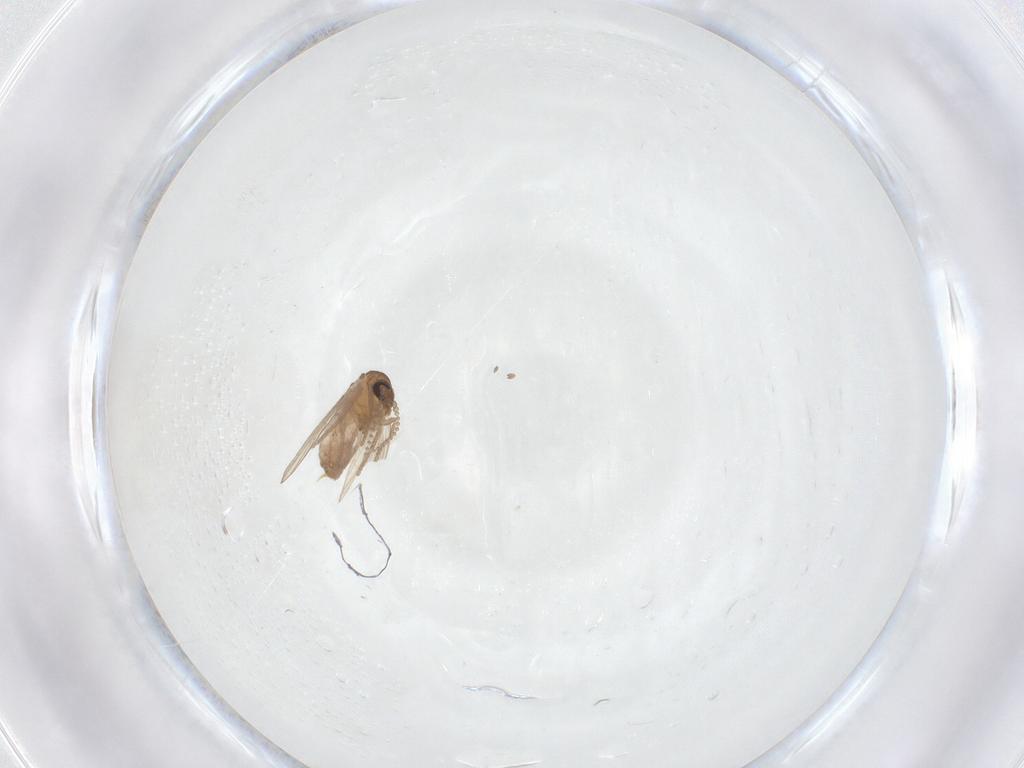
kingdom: Animalia
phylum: Arthropoda
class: Insecta
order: Diptera
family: Psychodidae
